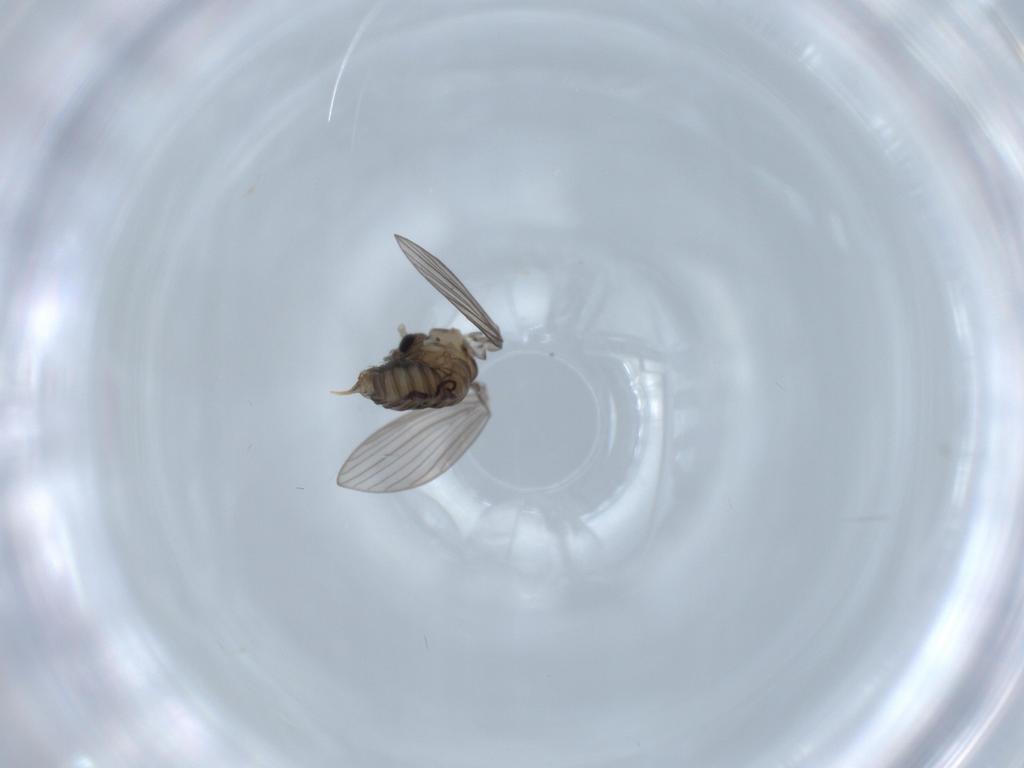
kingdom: Animalia
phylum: Arthropoda
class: Insecta
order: Diptera
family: Psychodidae
